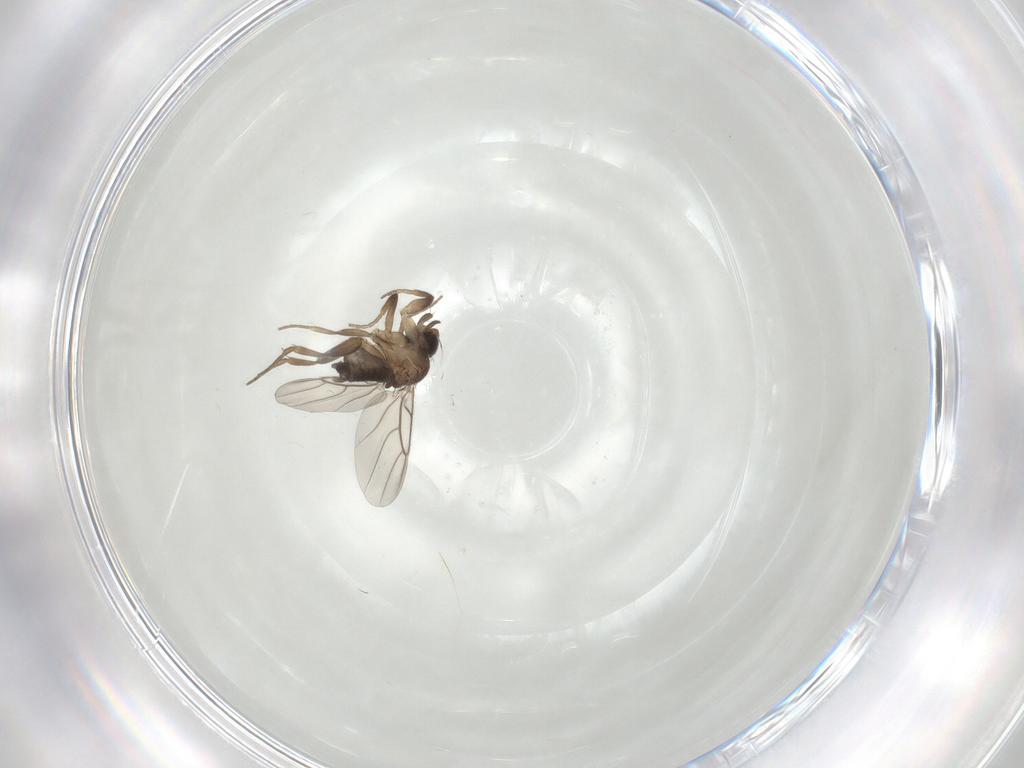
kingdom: Animalia
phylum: Arthropoda
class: Insecta
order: Diptera
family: Phoridae
